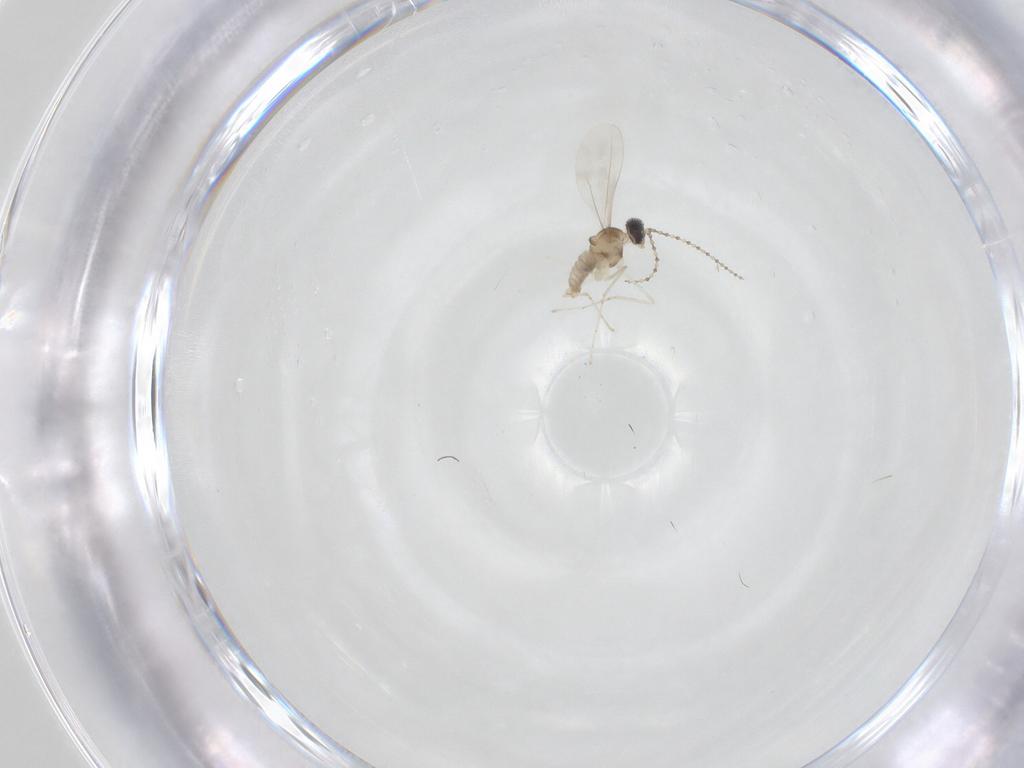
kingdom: Animalia
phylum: Arthropoda
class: Insecta
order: Diptera
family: Cecidomyiidae
